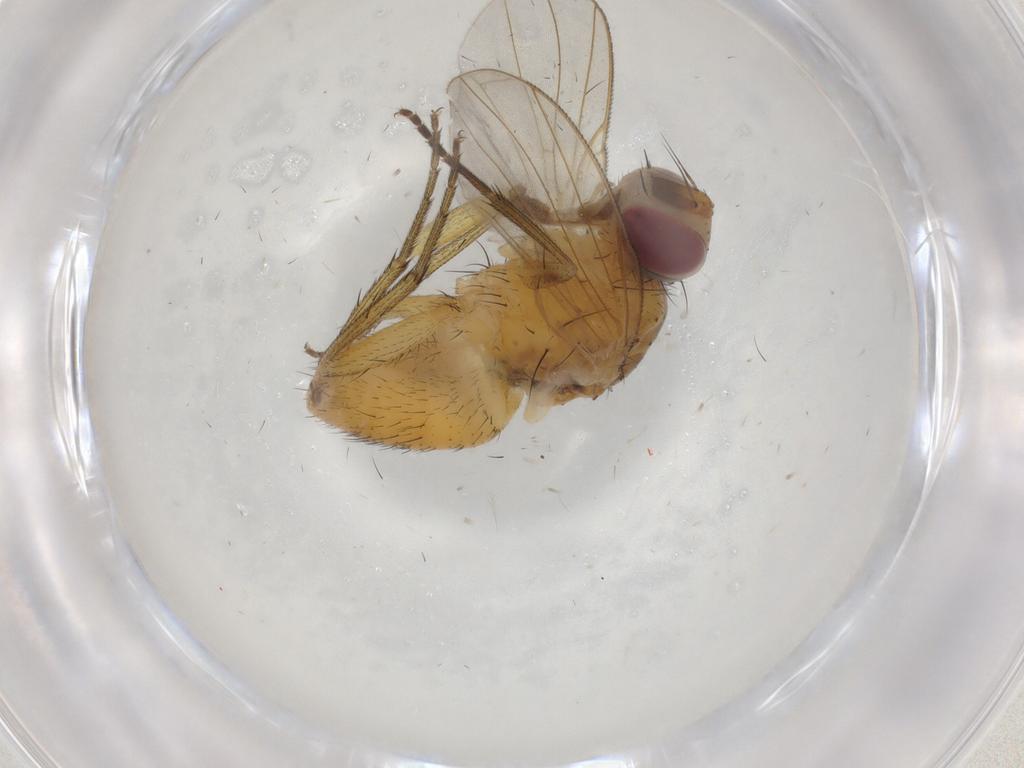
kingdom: Animalia
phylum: Arthropoda
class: Insecta
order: Diptera
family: Muscidae
